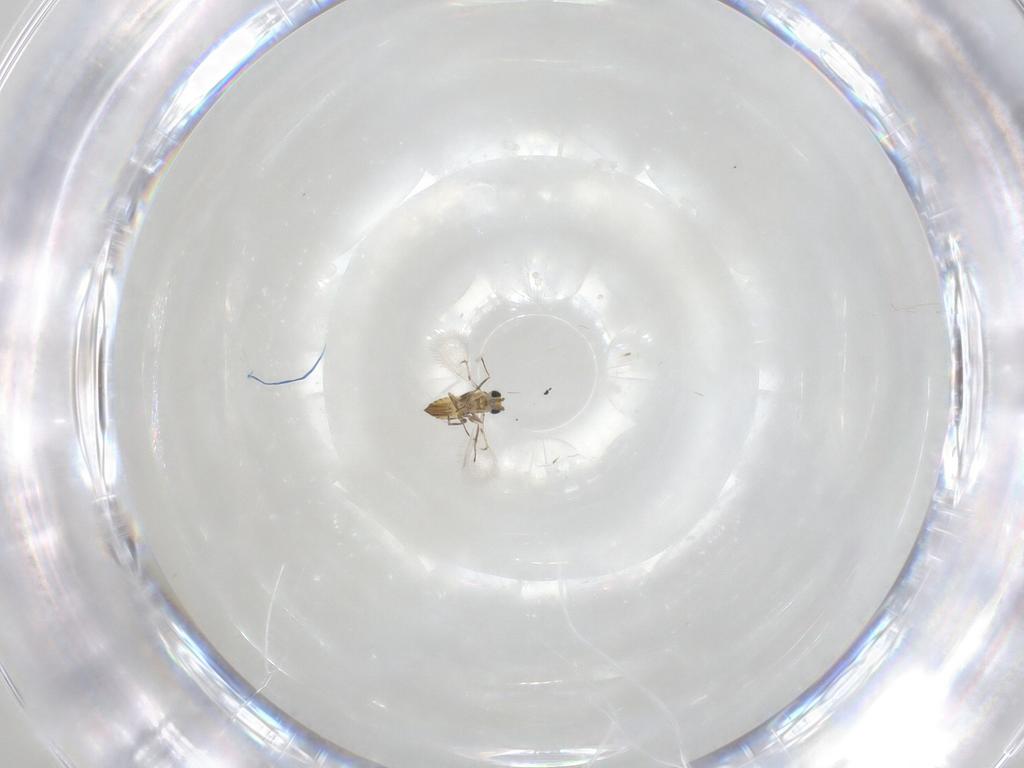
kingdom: Animalia
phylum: Arthropoda
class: Insecta
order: Hymenoptera
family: Trichogrammatidae
